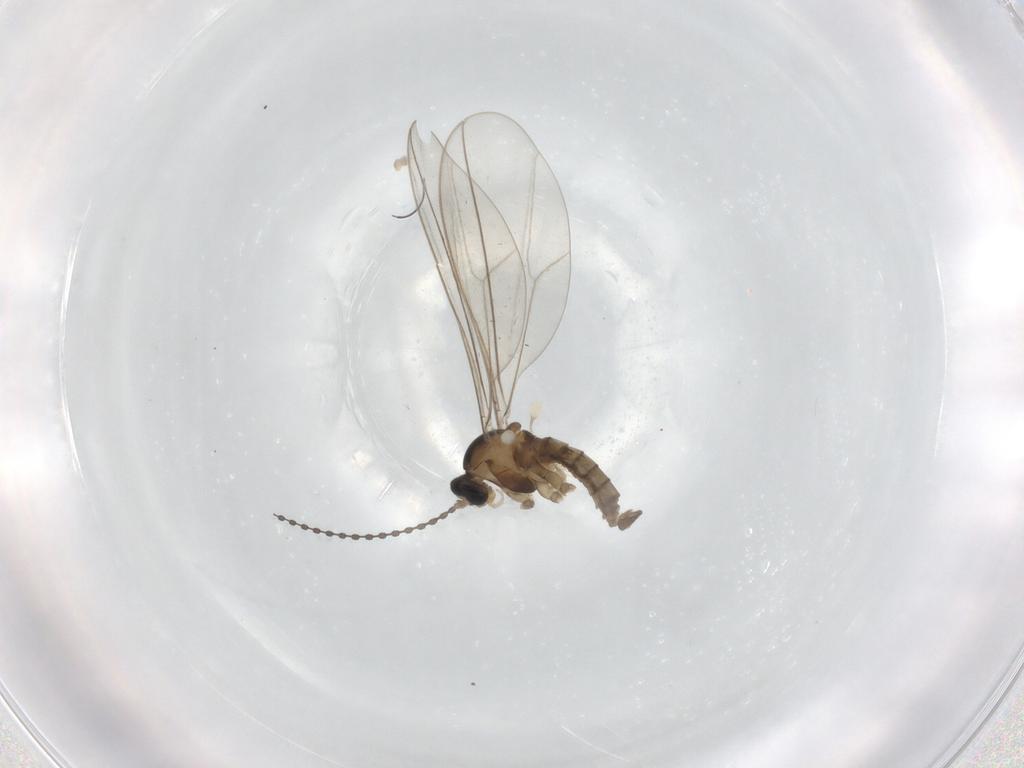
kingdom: Animalia
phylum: Arthropoda
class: Insecta
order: Diptera
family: Cecidomyiidae
